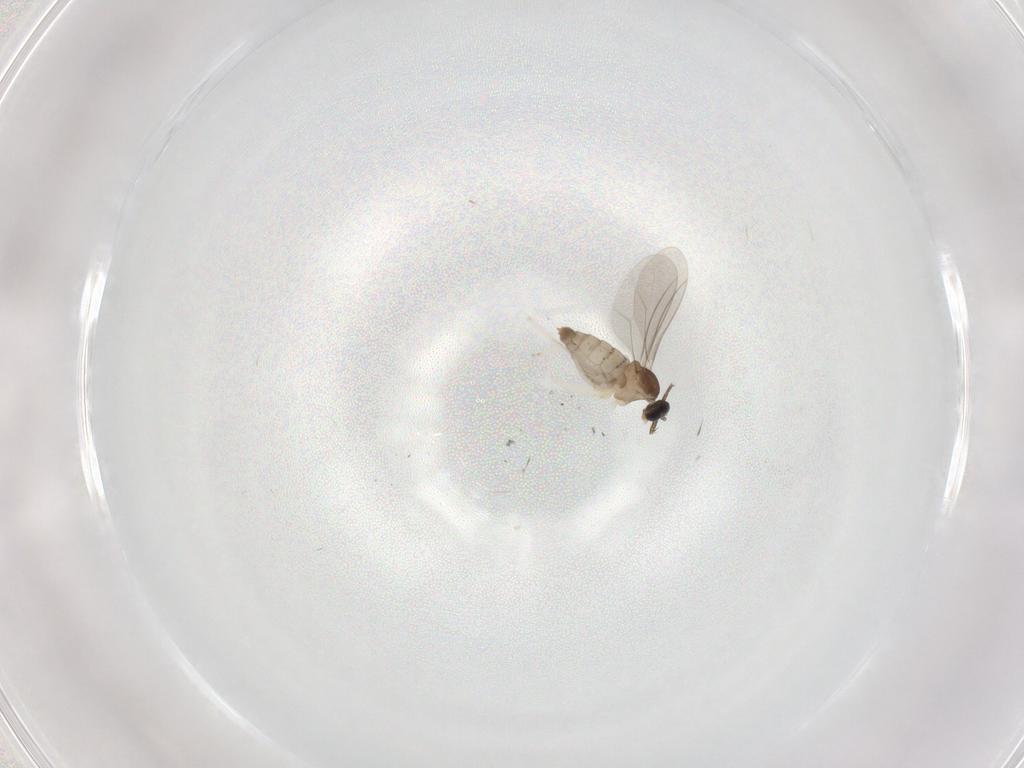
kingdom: Animalia
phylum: Arthropoda
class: Insecta
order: Diptera
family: Cecidomyiidae
